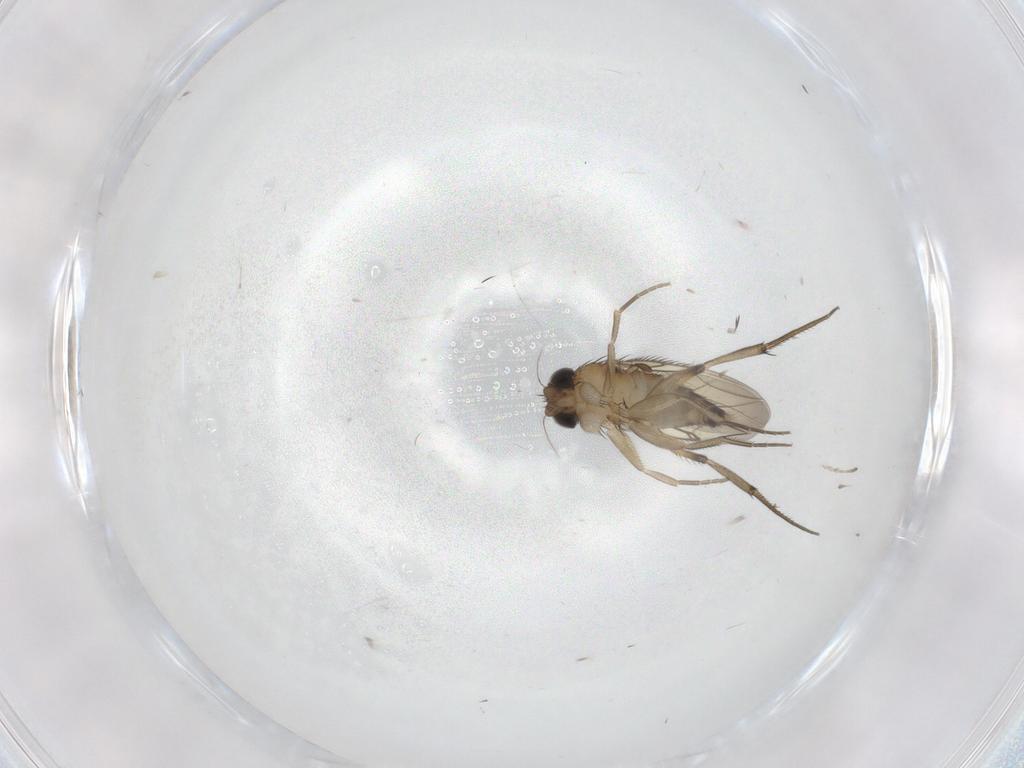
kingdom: Animalia
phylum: Arthropoda
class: Insecta
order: Diptera
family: Phoridae
